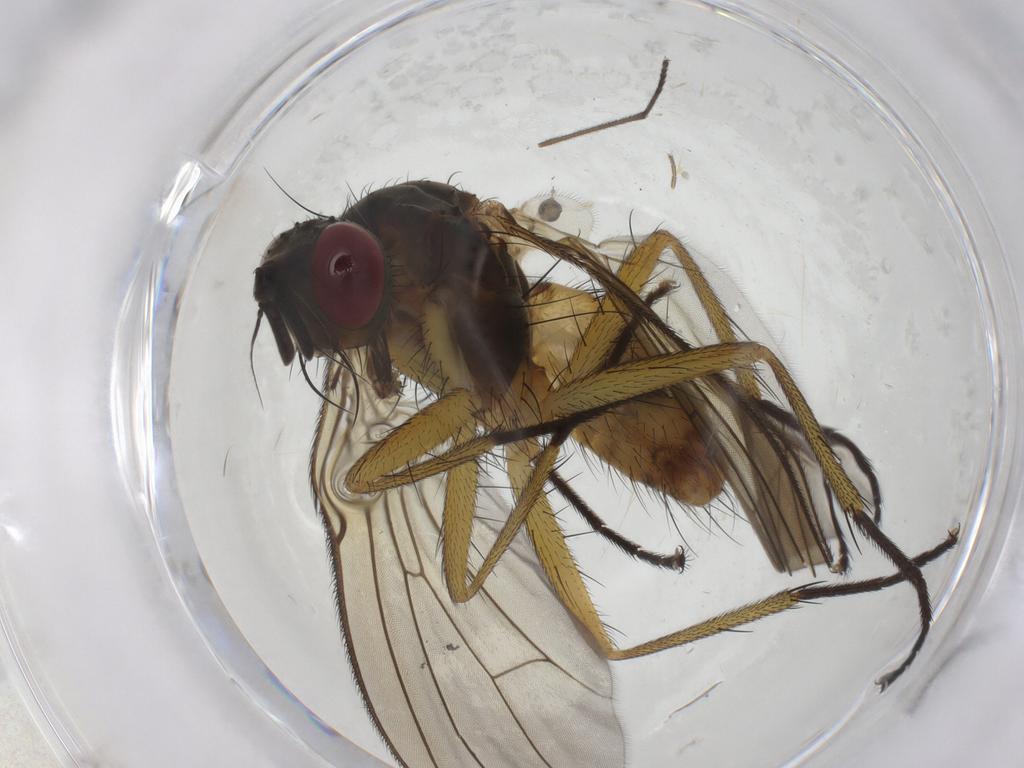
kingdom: Animalia
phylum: Arthropoda
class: Insecta
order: Diptera
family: Muscidae
